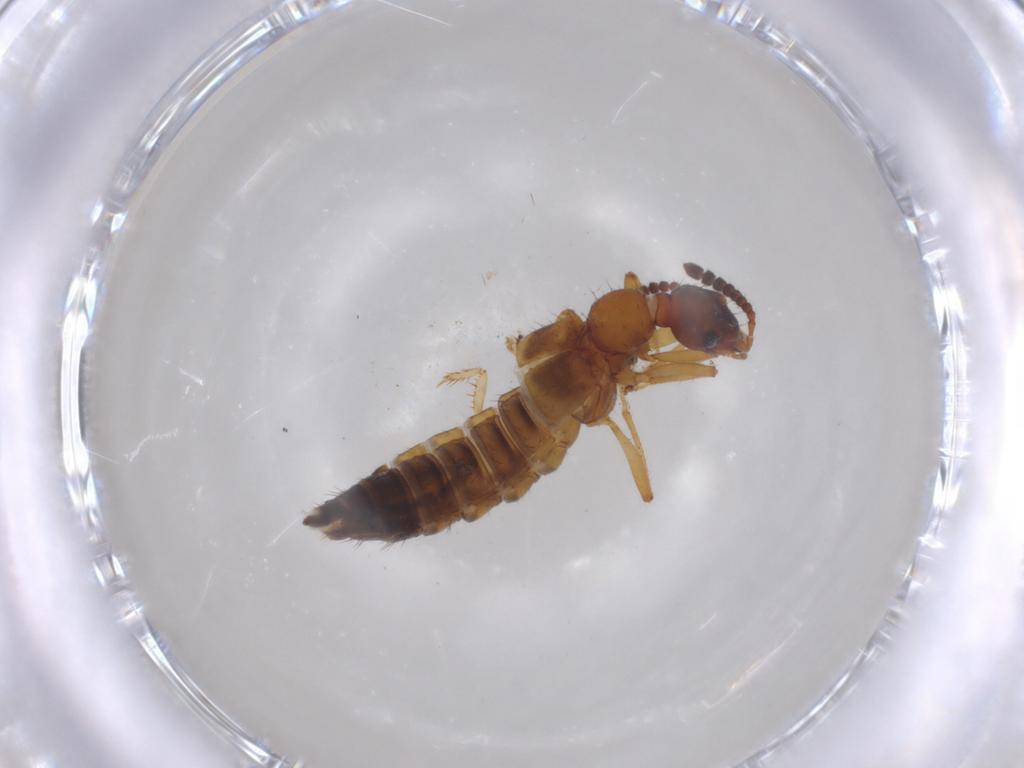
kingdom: Animalia
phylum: Arthropoda
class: Insecta
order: Coleoptera
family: Staphylinidae
